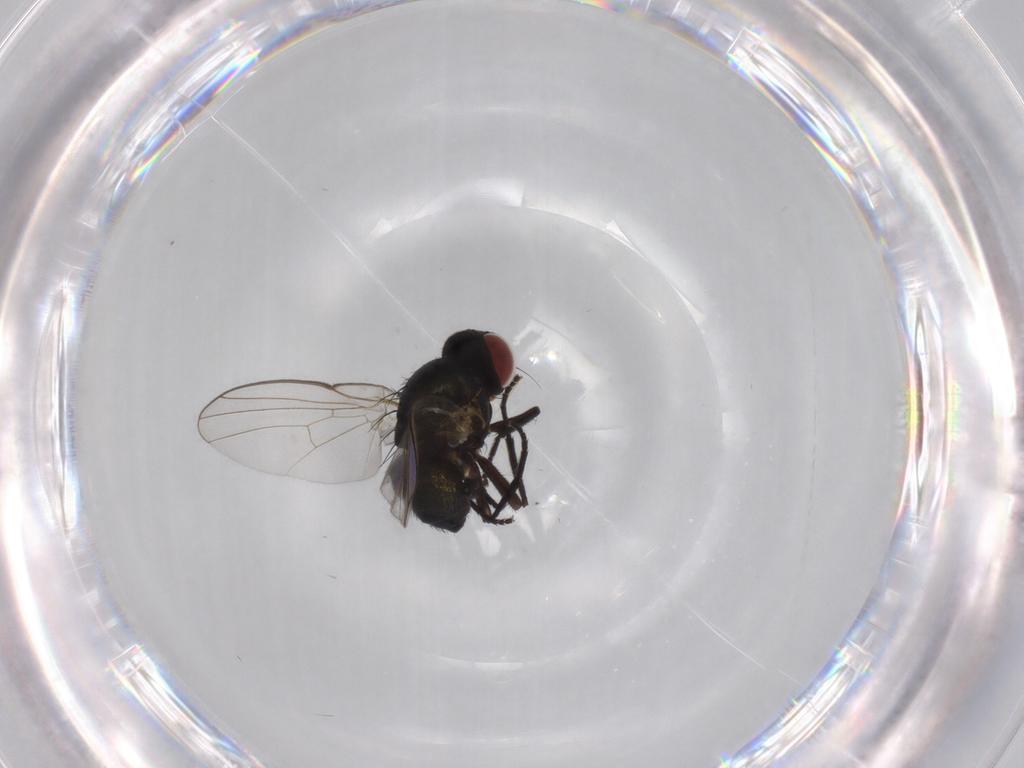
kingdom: Animalia
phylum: Arthropoda
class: Insecta
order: Diptera
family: Agromyzidae
